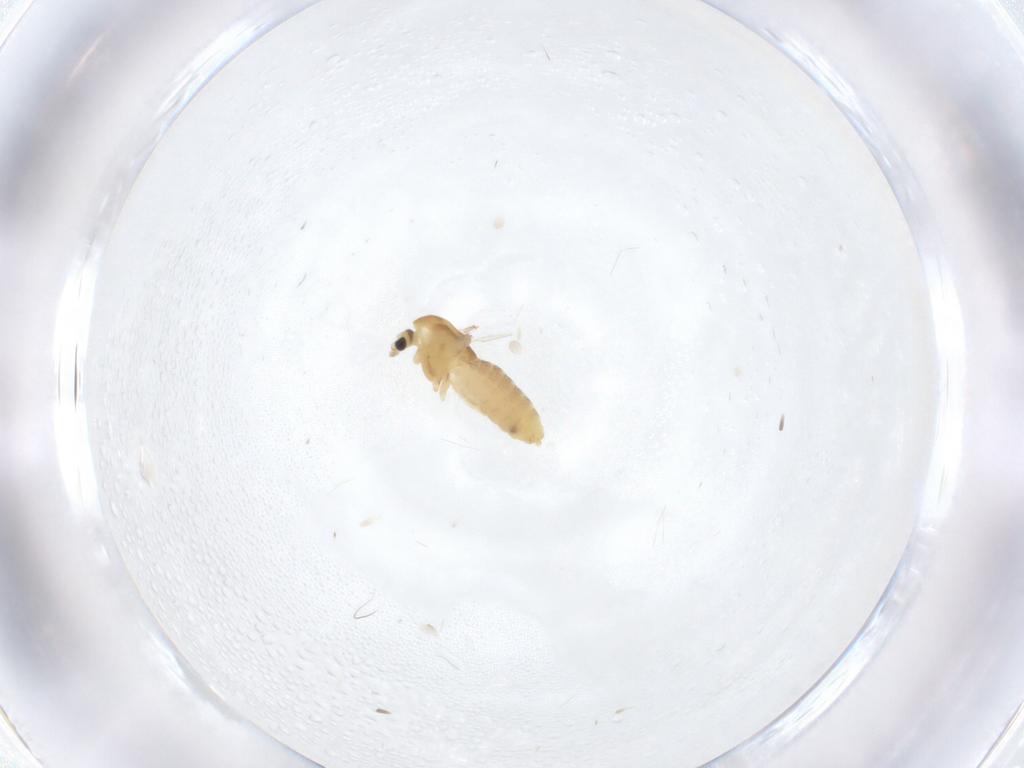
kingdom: Animalia
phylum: Arthropoda
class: Insecta
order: Diptera
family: Chironomidae
